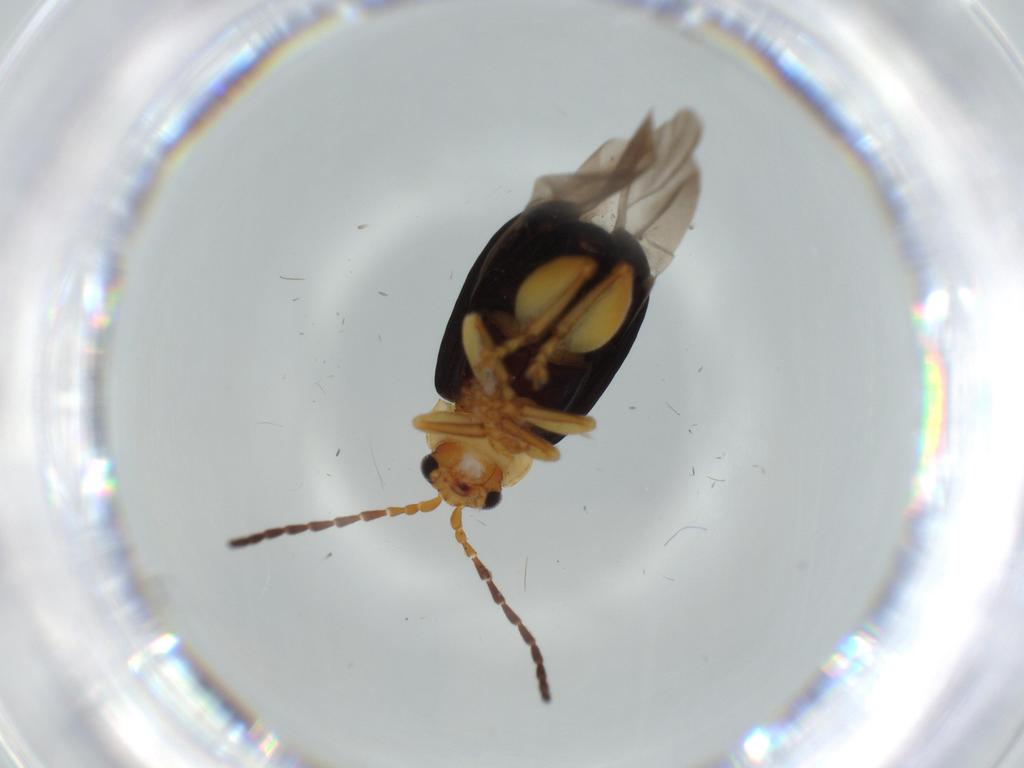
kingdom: Animalia
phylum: Arthropoda
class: Insecta
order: Coleoptera
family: Chrysomelidae
